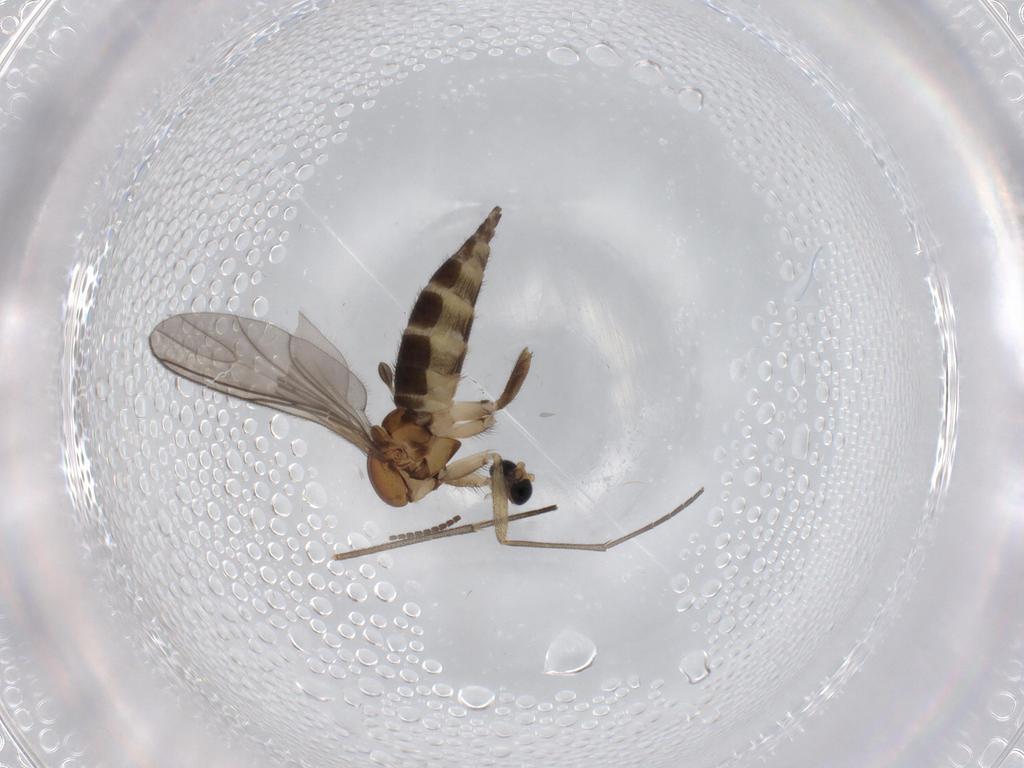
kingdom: Animalia
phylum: Arthropoda
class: Insecta
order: Diptera
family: Sciaridae
